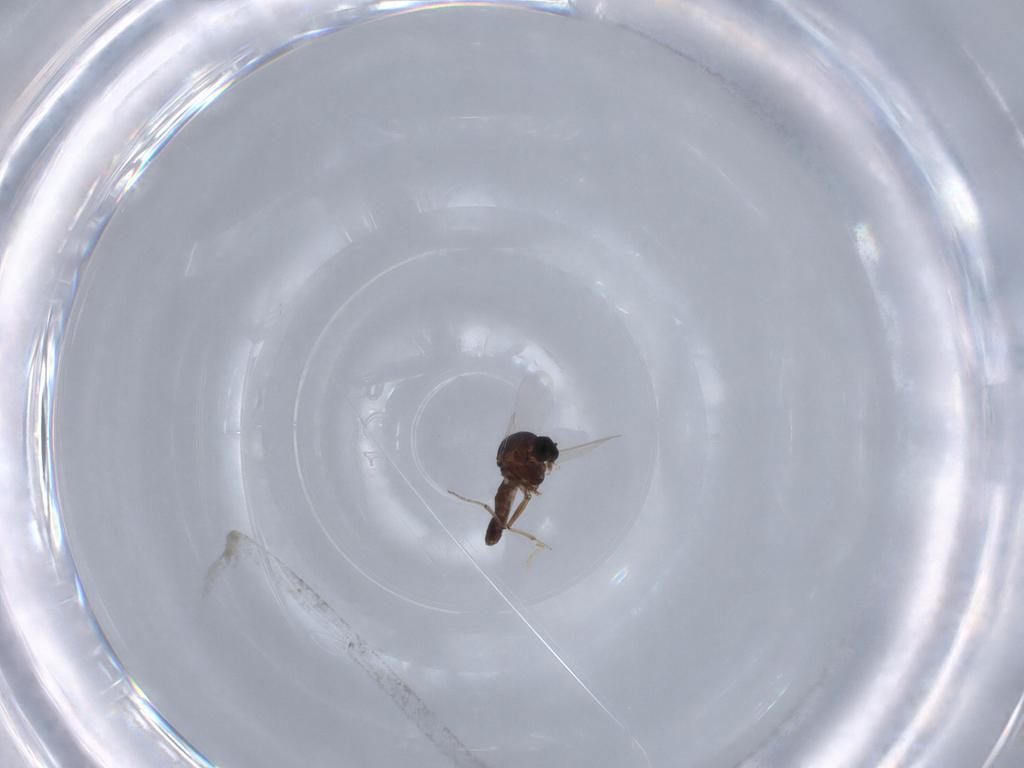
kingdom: Animalia
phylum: Arthropoda
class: Insecta
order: Diptera
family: Ceratopogonidae
